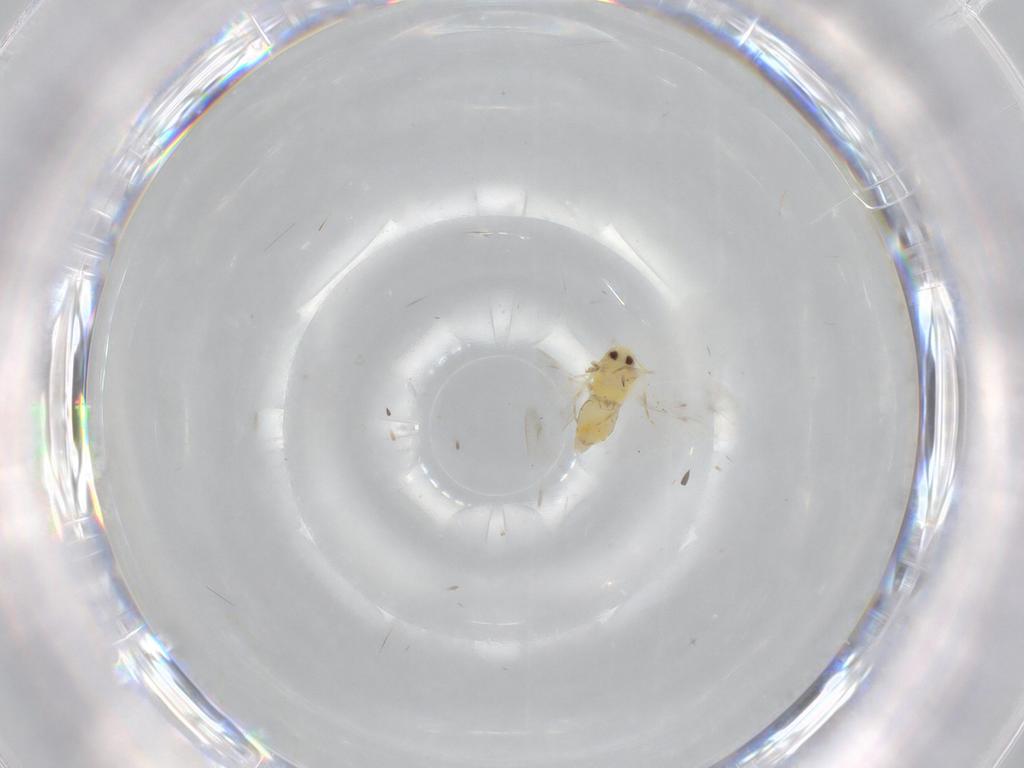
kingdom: Animalia
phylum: Arthropoda
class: Insecta
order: Hemiptera
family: Aleyrodidae
